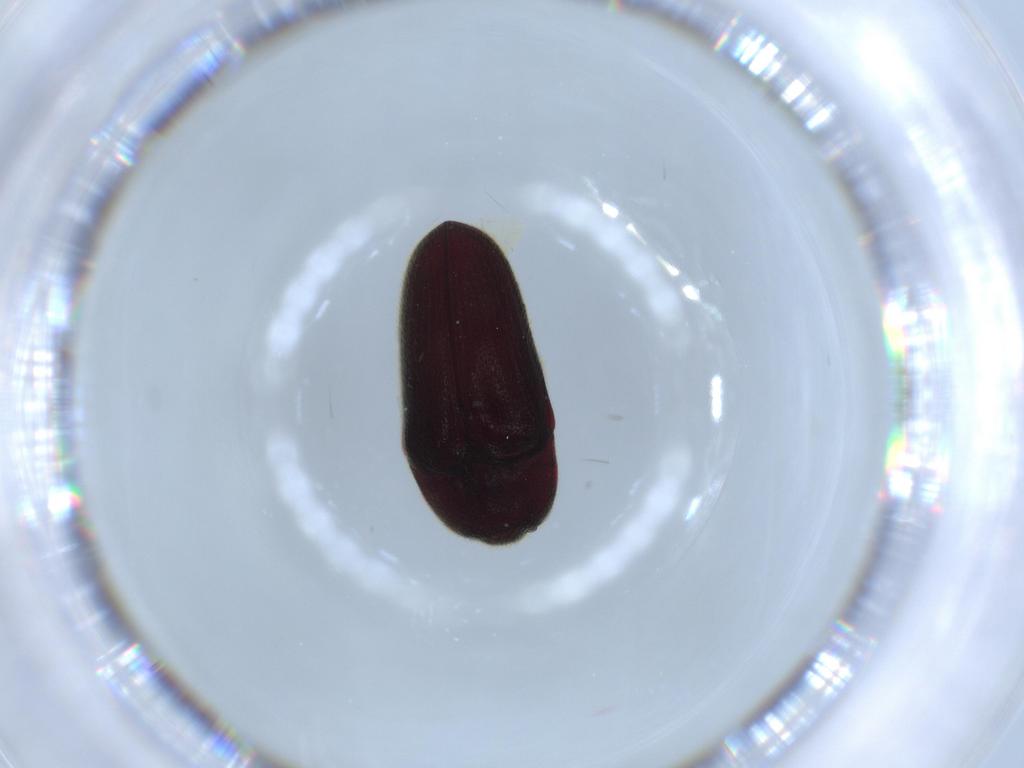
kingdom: Animalia
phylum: Arthropoda
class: Insecta
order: Coleoptera
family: Throscidae
